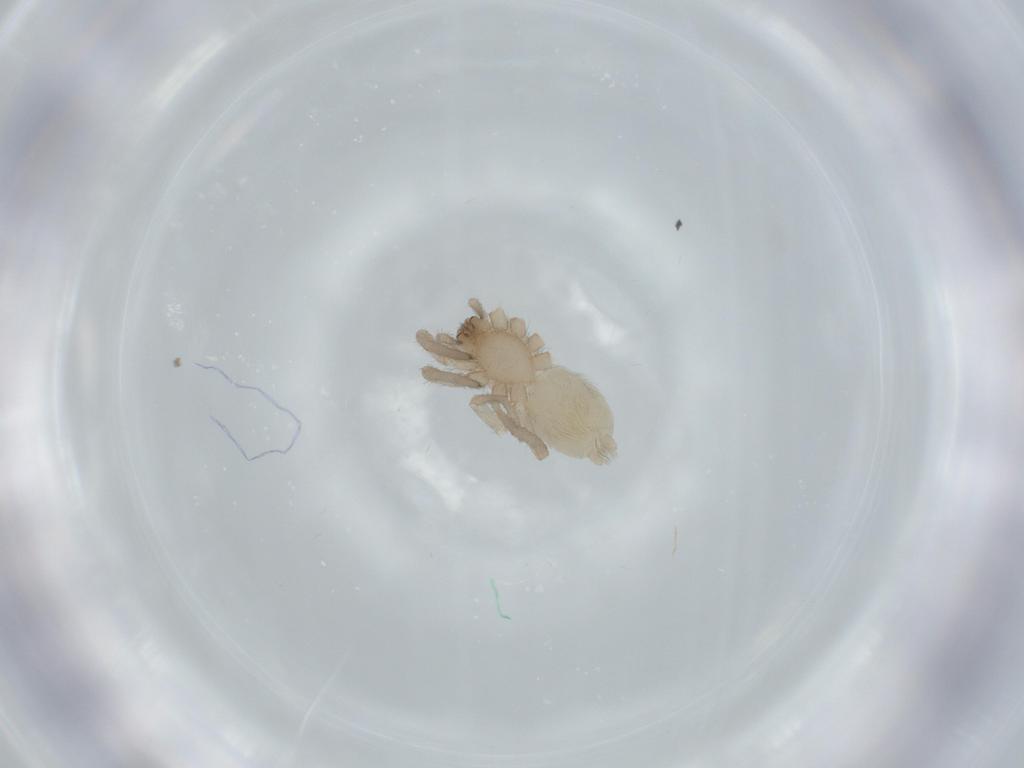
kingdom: Animalia
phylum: Arthropoda
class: Arachnida
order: Araneae
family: Gnaphosidae
